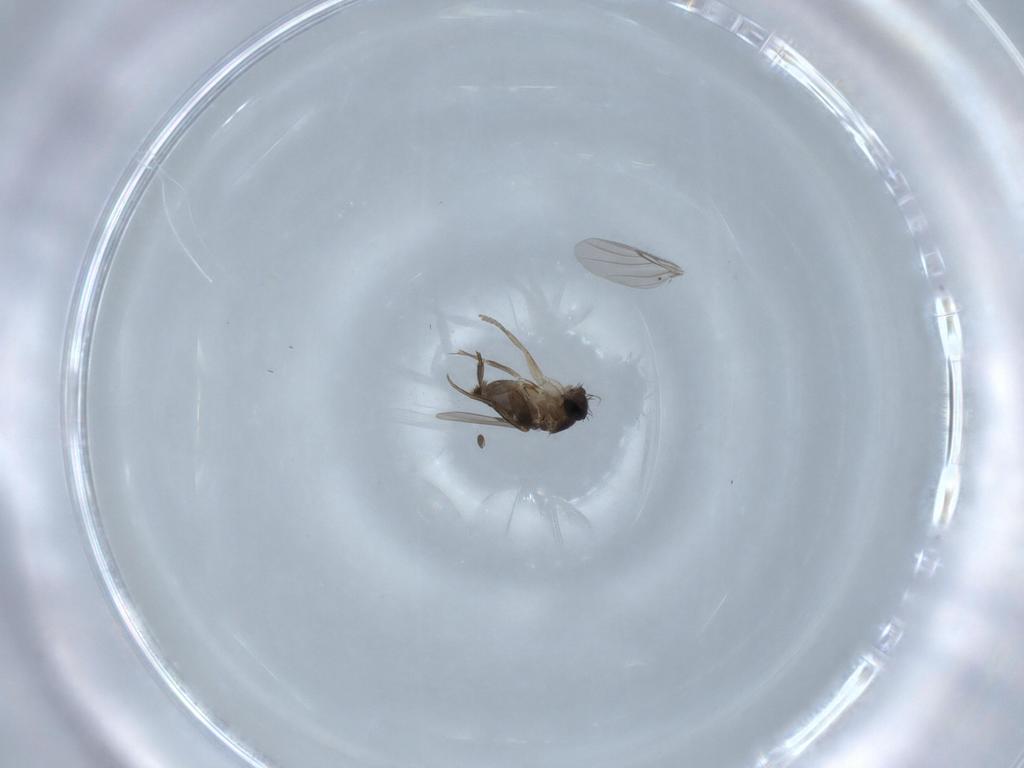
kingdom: Animalia
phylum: Arthropoda
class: Insecta
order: Diptera
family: Phoridae
